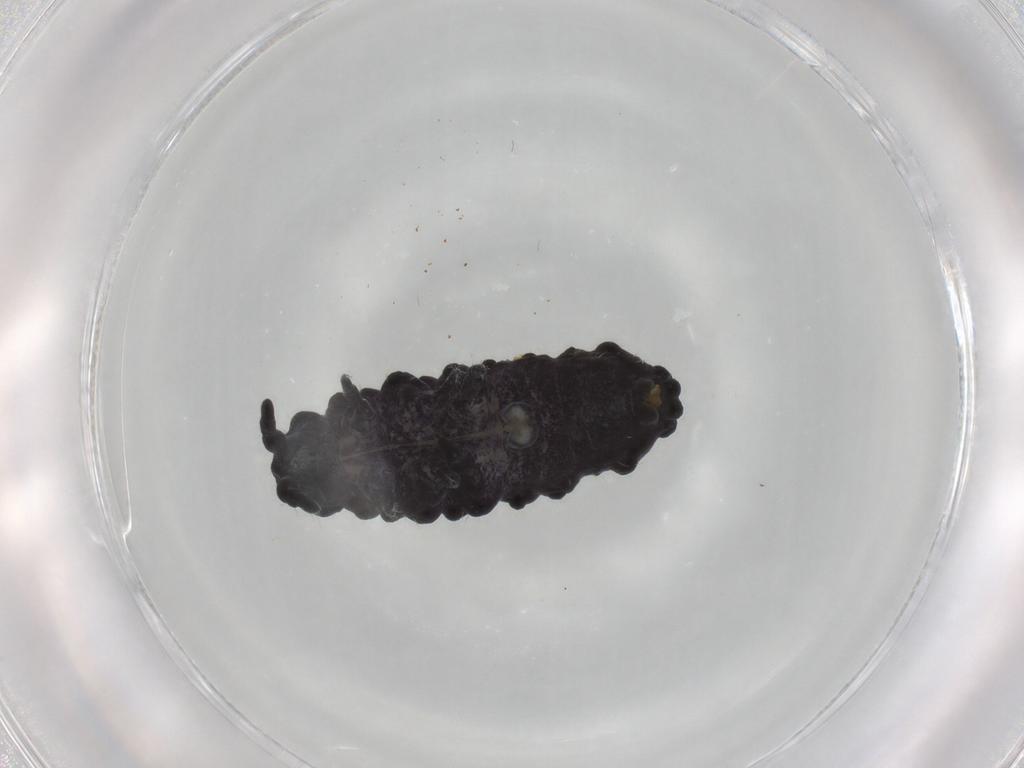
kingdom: Animalia
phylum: Arthropoda
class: Collembola
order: Poduromorpha
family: Neanuridae
